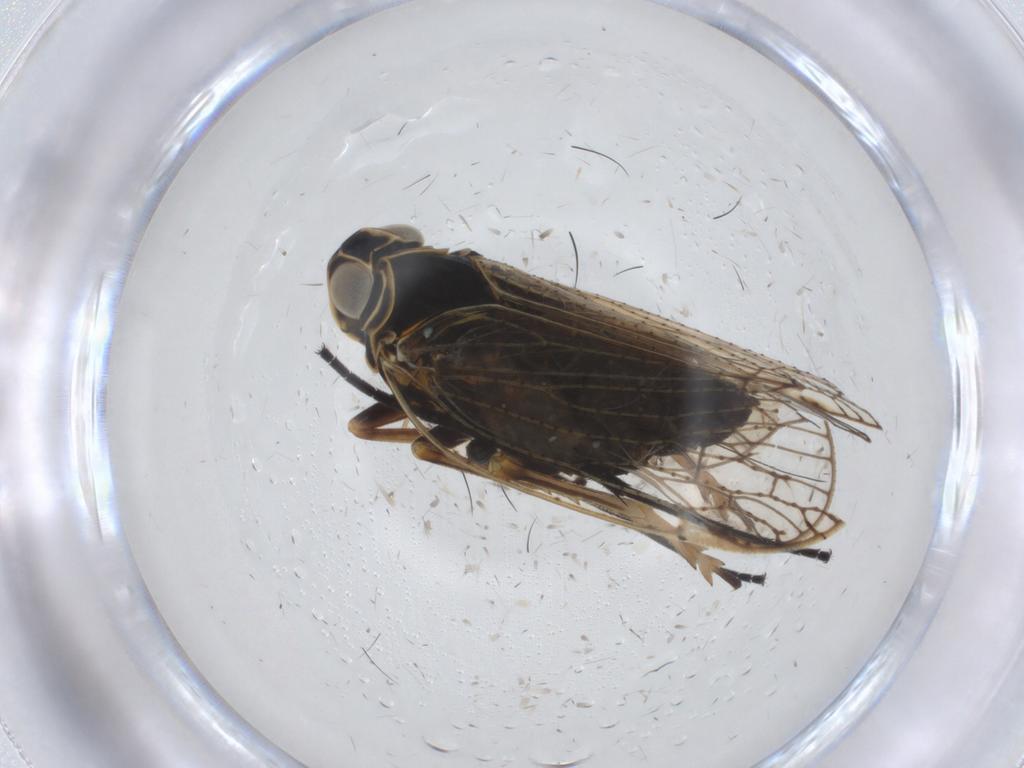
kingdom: Animalia
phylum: Arthropoda
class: Insecta
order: Hemiptera
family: Cixiidae
